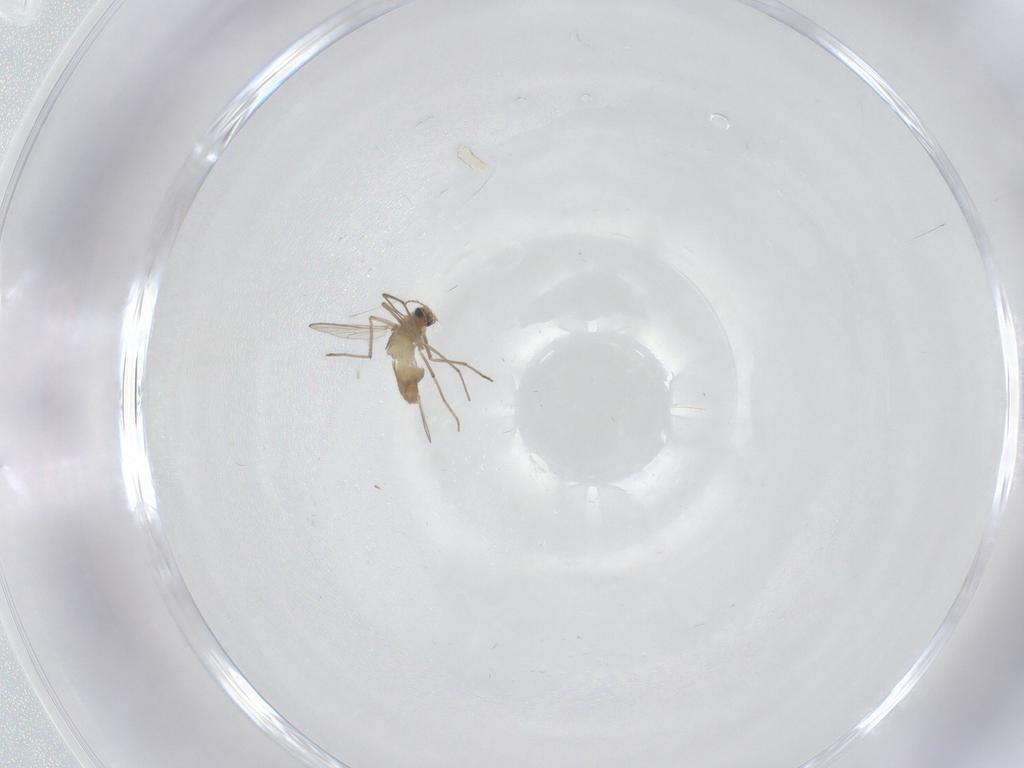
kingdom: Animalia
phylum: Arthropoda
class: Insecta
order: Diptera
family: Chironomidae
